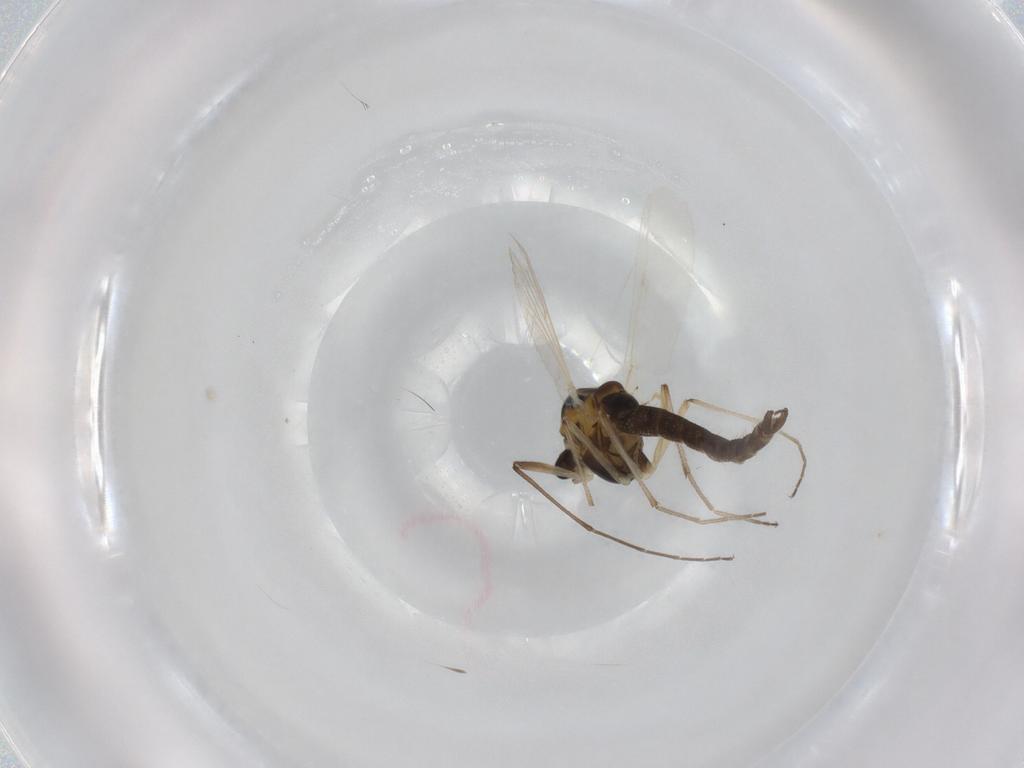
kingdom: Animalia
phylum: Arthropoda
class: Insecta
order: Diptera
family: Chironomidae
